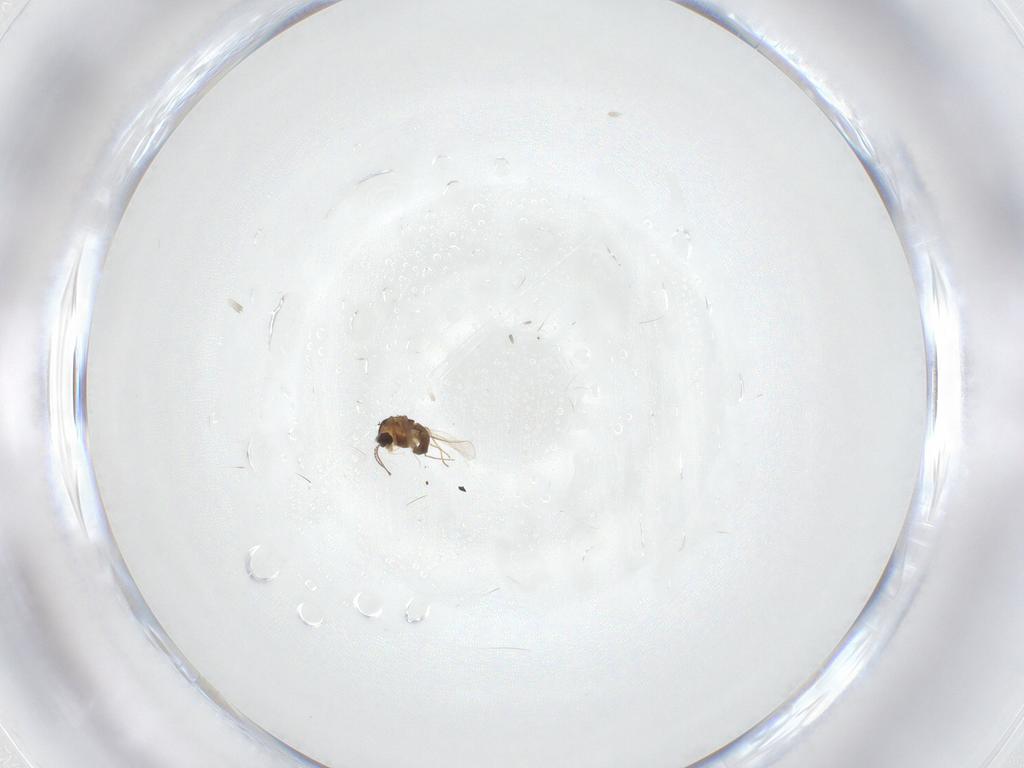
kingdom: Animalia
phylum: Arthropoda
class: Insecta
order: Diptera
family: Chironomidae
